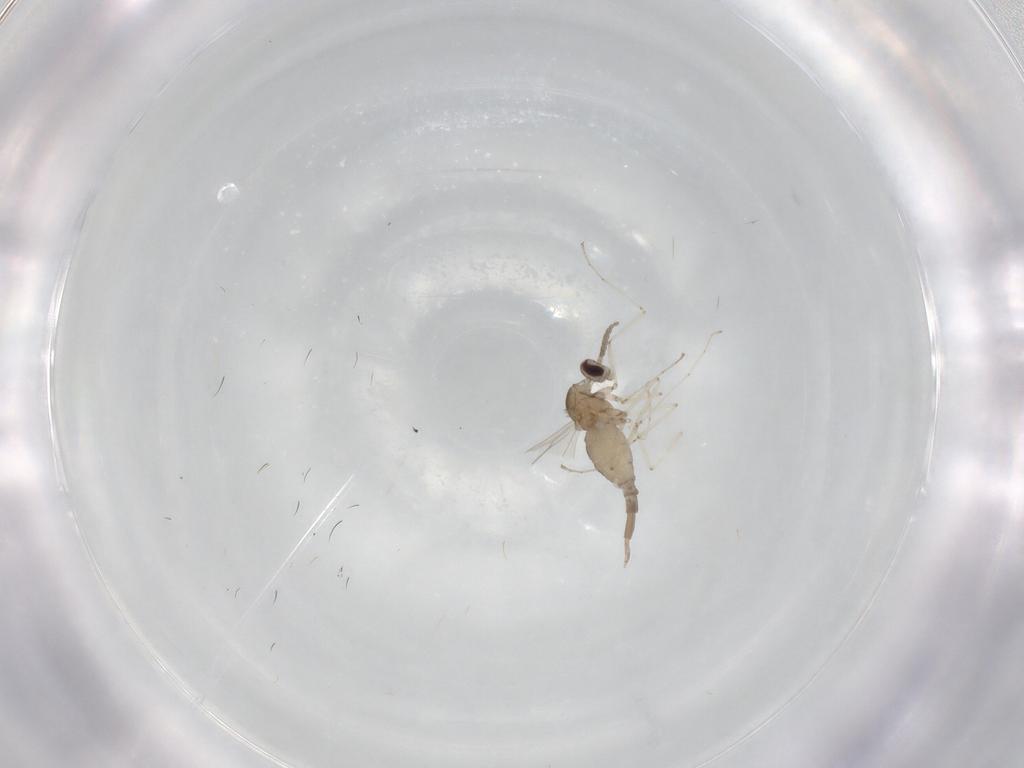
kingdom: Animalia
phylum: Arthropoda
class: Insecta
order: Diptera
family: Cecidomyiidae
